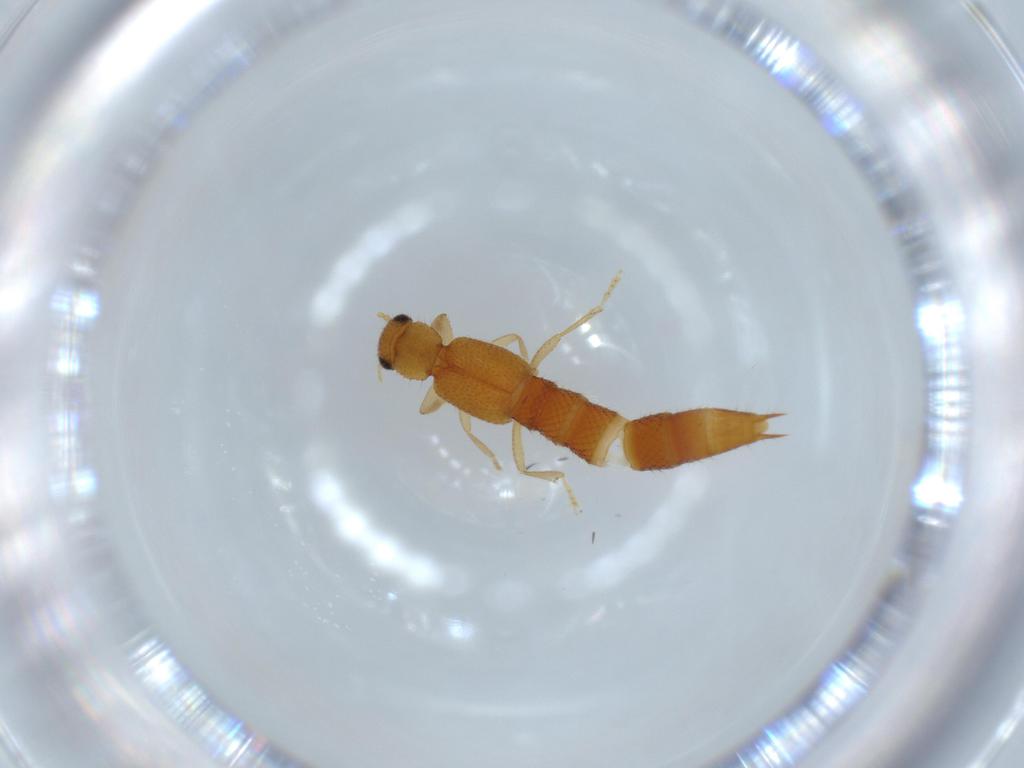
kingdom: Animalia
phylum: Arthropoda
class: Insecta
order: Coleoptera
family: Staphylinidae
